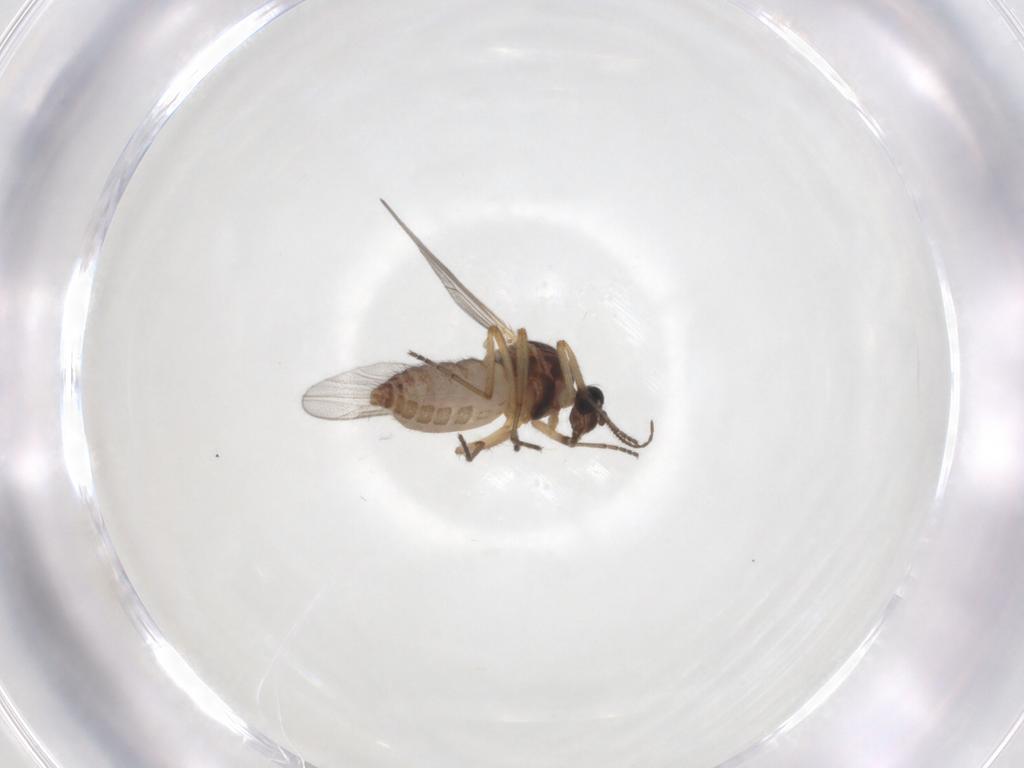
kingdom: Animalia
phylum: Arthropoda
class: Insecta
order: Diptera
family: Ceratopogonidae
